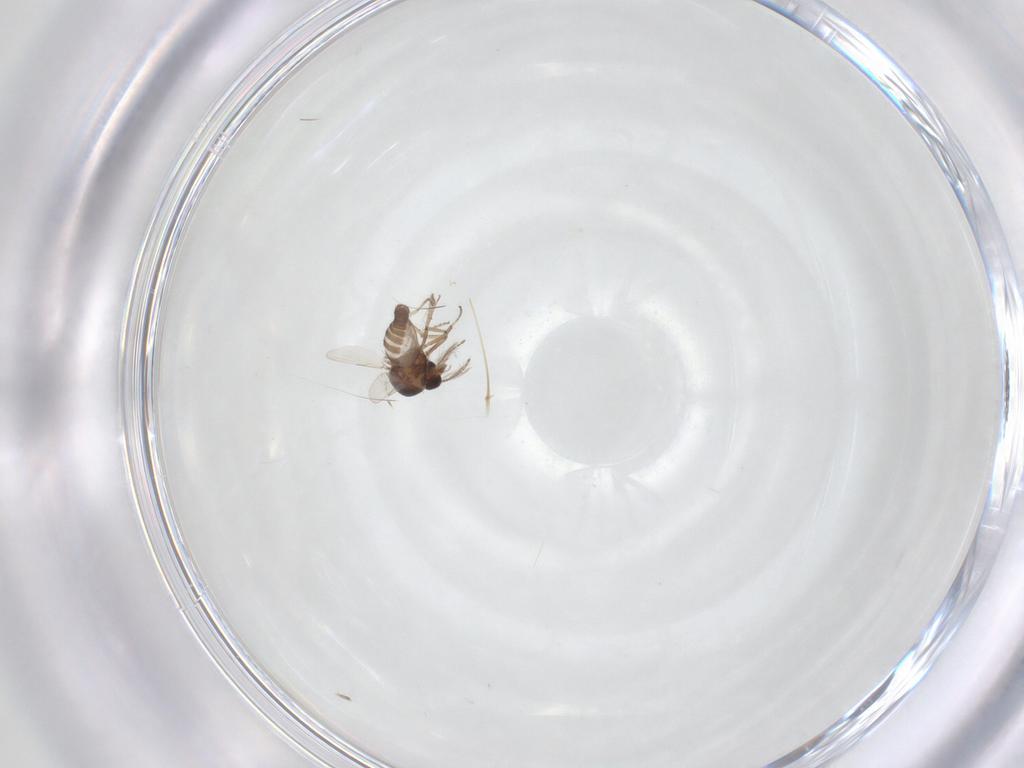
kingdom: Animalia
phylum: Arthropoda
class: Insecta
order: Diptera
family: Ceratopogonidae
